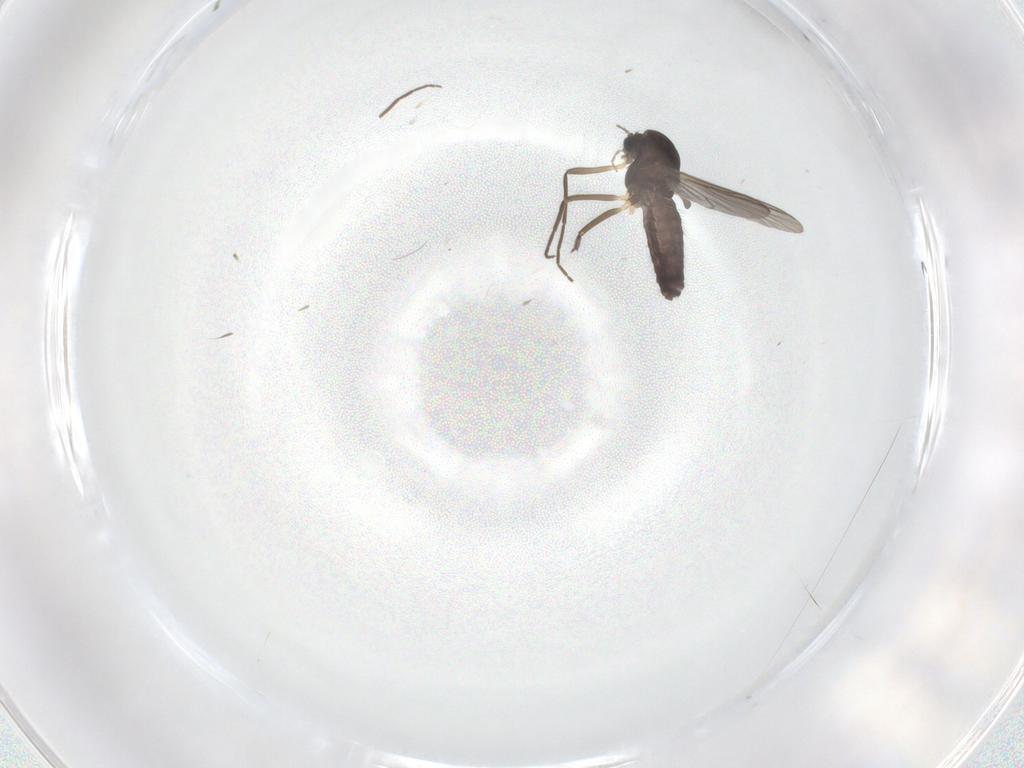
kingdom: Animalia
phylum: Arthropoda
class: Insecta
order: Diptera
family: Chironomidae
